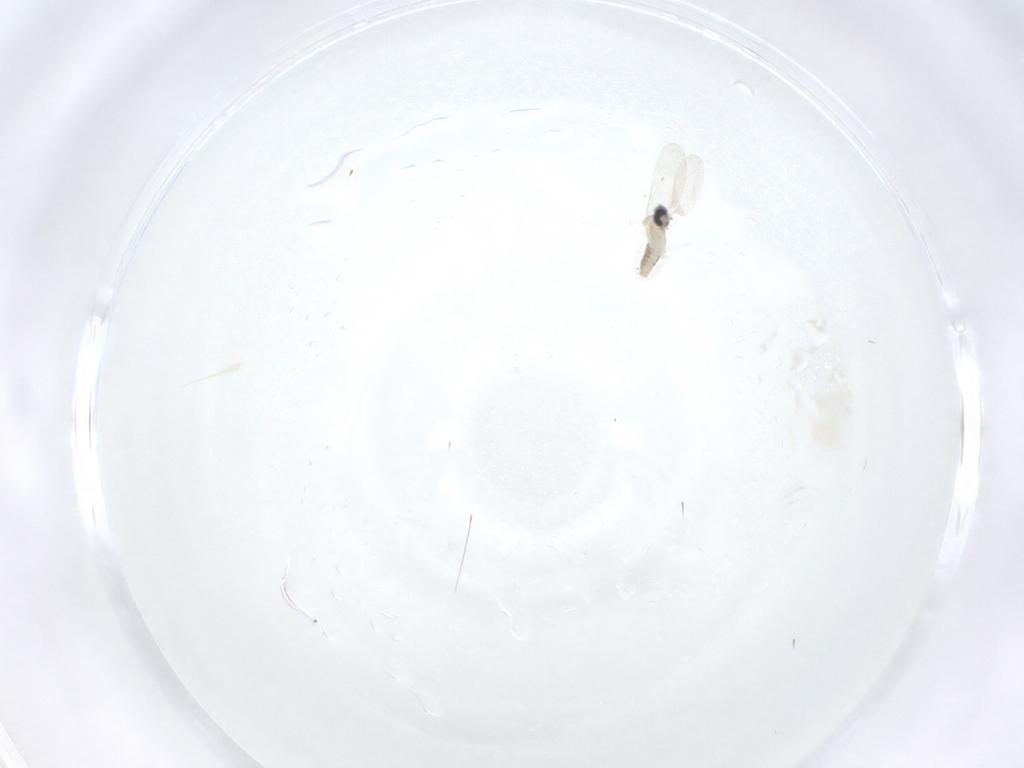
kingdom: Animalia
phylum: Arthropoda
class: Insecta
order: Diptera
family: Cecidomyiidae
